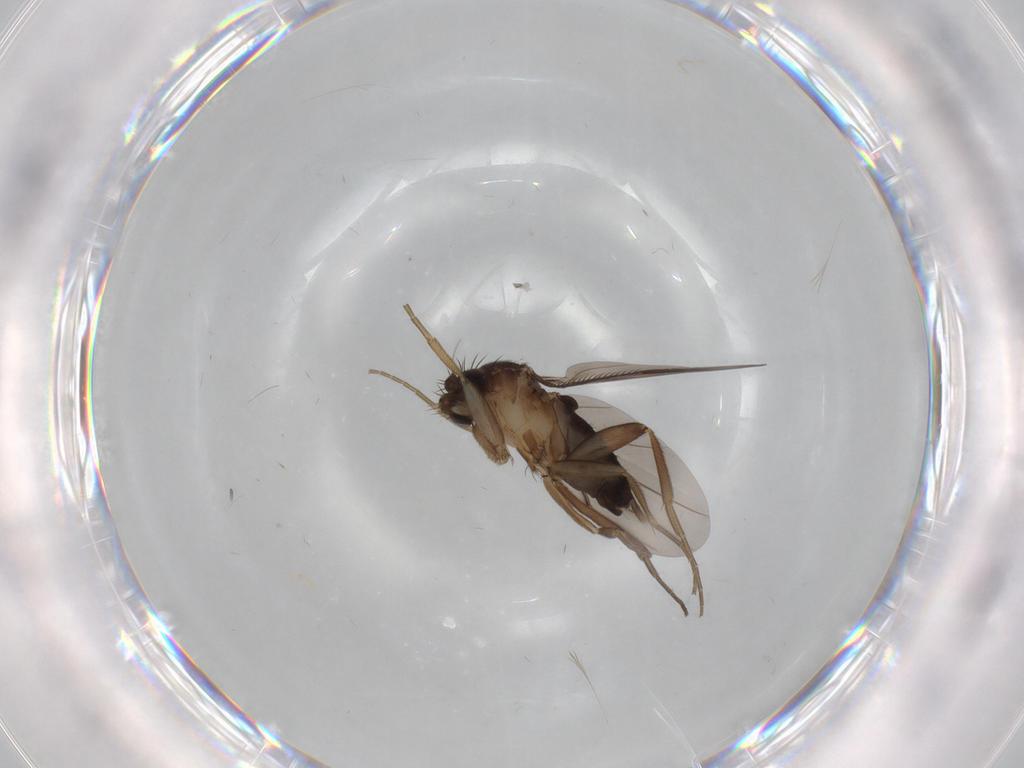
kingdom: Animalia
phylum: Arthropoda
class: Insecta
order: Diptera
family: Phoridae
